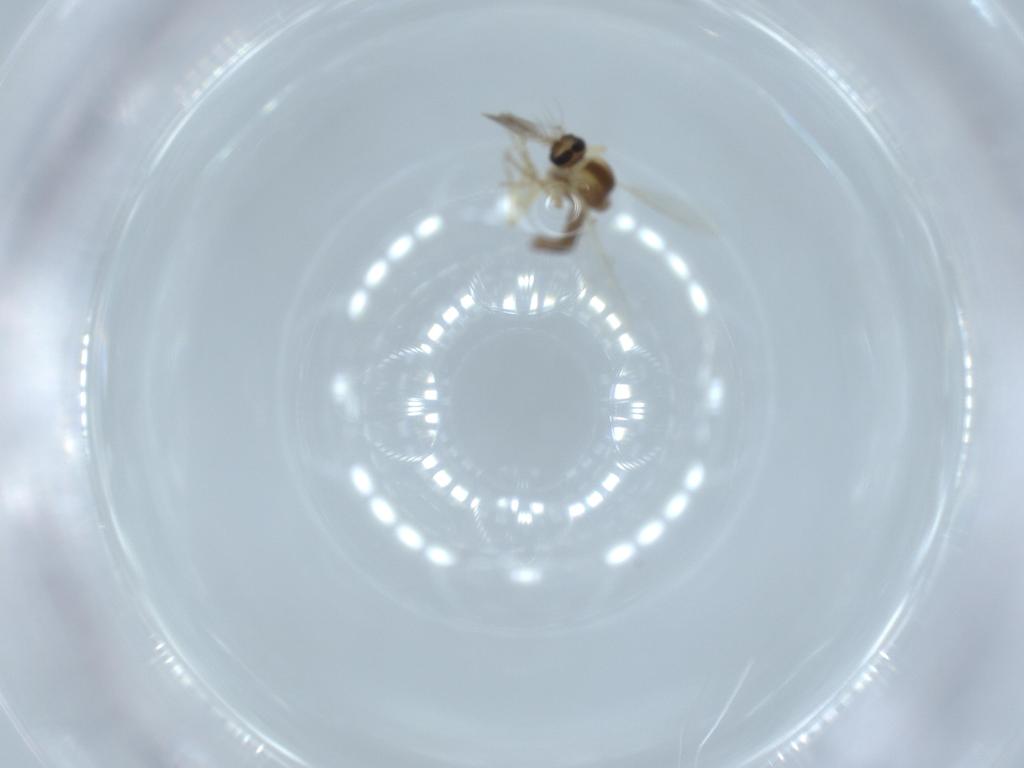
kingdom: Animalia
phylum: Arthropoda
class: Insecta
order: Diptera
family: Ceratopogonidae
